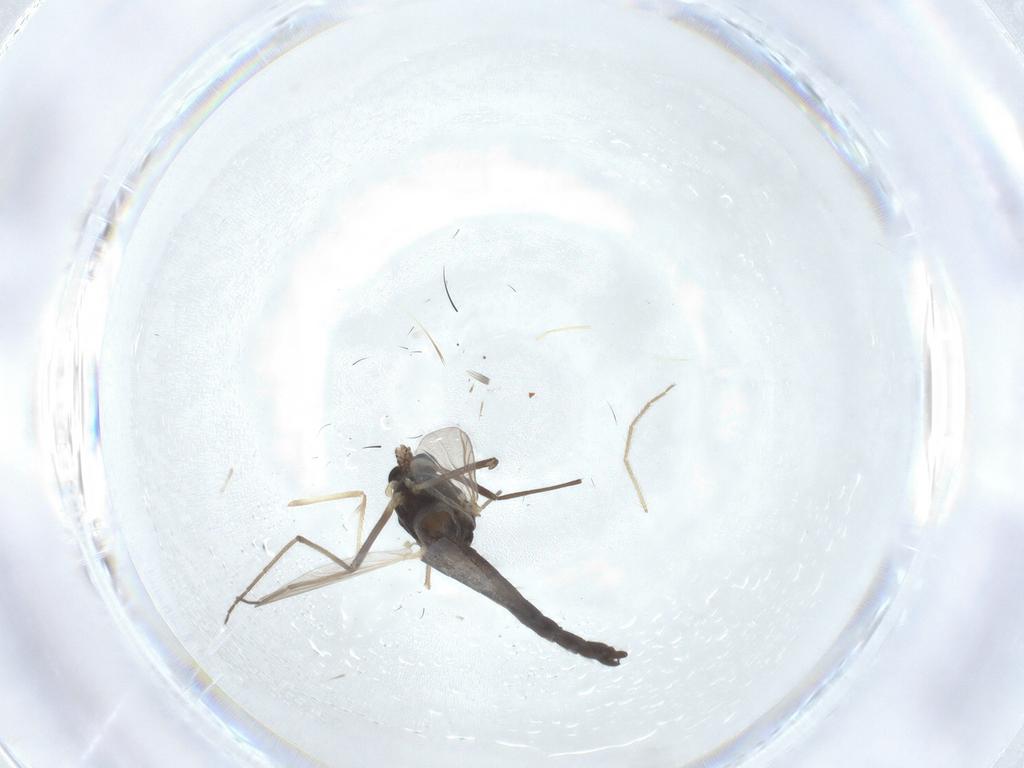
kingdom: Animalia
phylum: Arthropoda
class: Insecta
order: Diptera
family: Chironomidae
